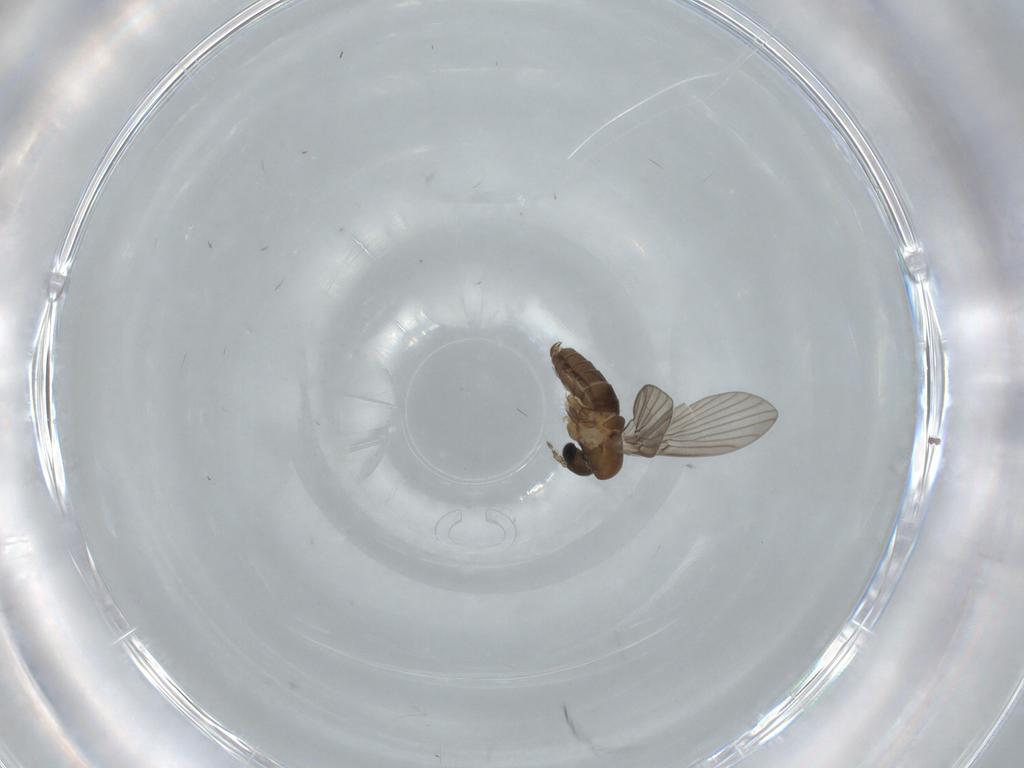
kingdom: Animalia
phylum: Arthropoda
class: Insecta
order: Diptera
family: Psychodidae
